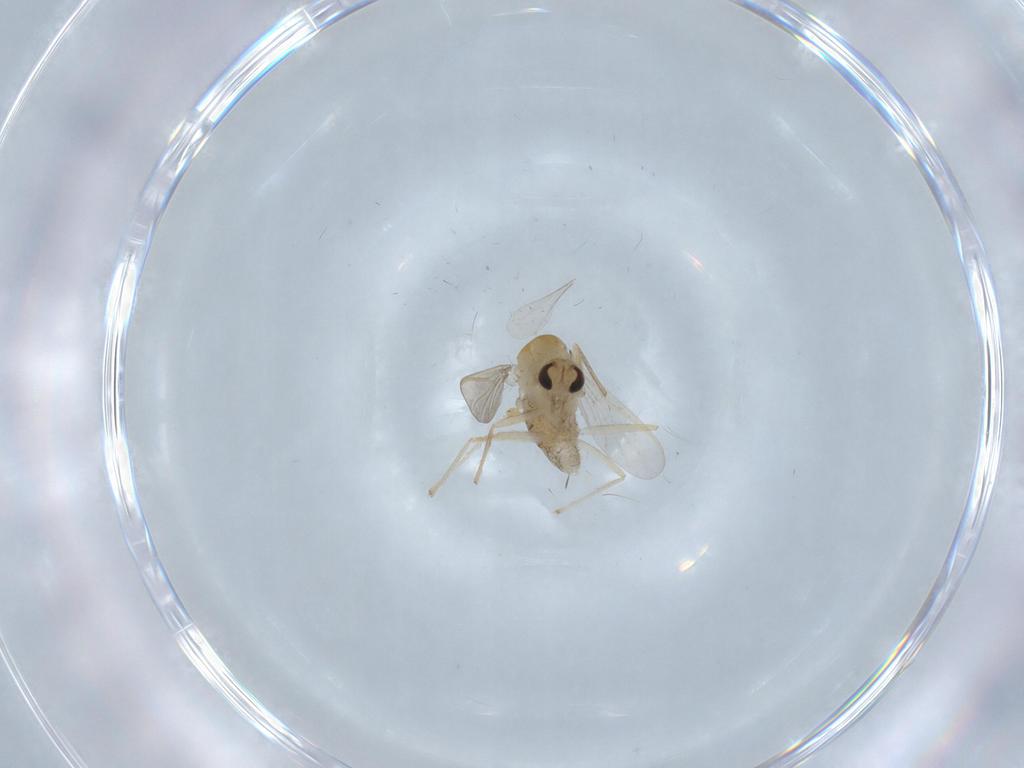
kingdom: Animalia
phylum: Arthropoda
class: Insecta
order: Diptera
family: Chironomidae
